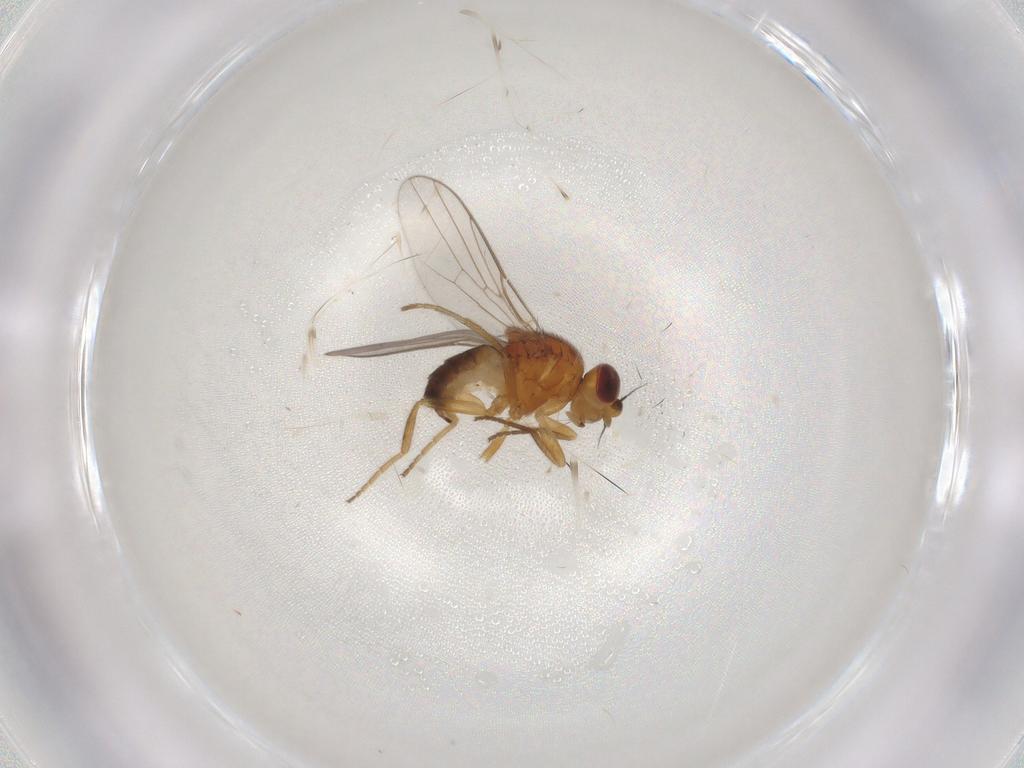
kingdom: Animalia
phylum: Arthropoda
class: Insecta
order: Diptera
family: Chloropidae
